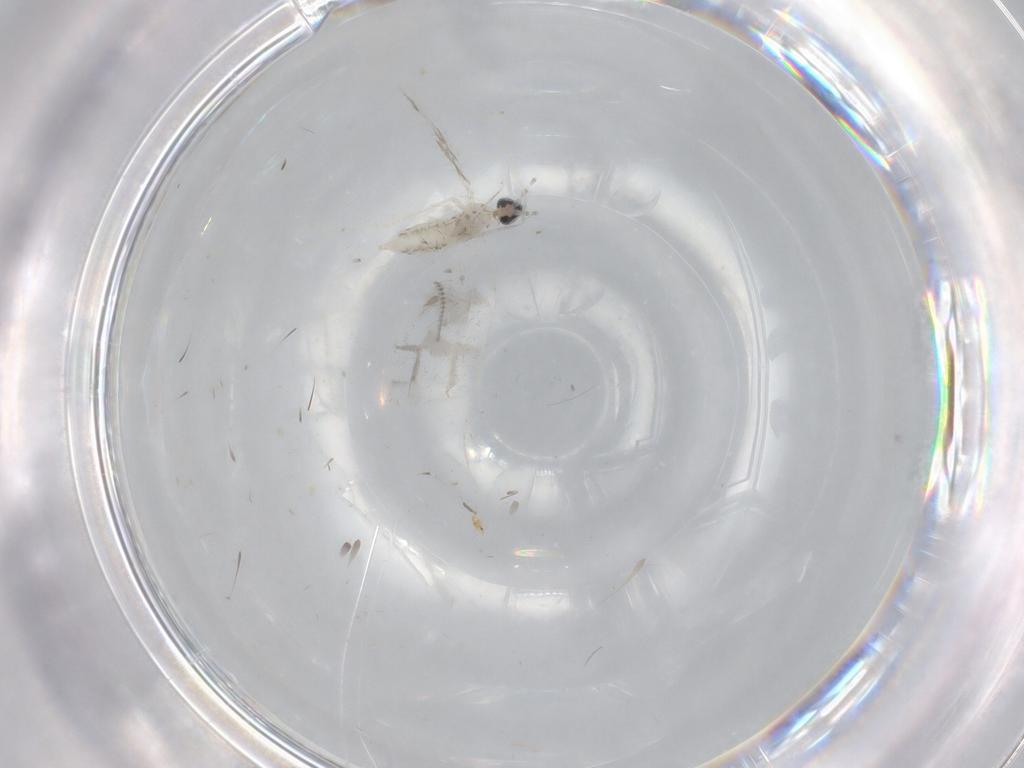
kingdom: Animalia
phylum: Arthropoda
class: Insecta
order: Diptera
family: Cecidomyiidae
